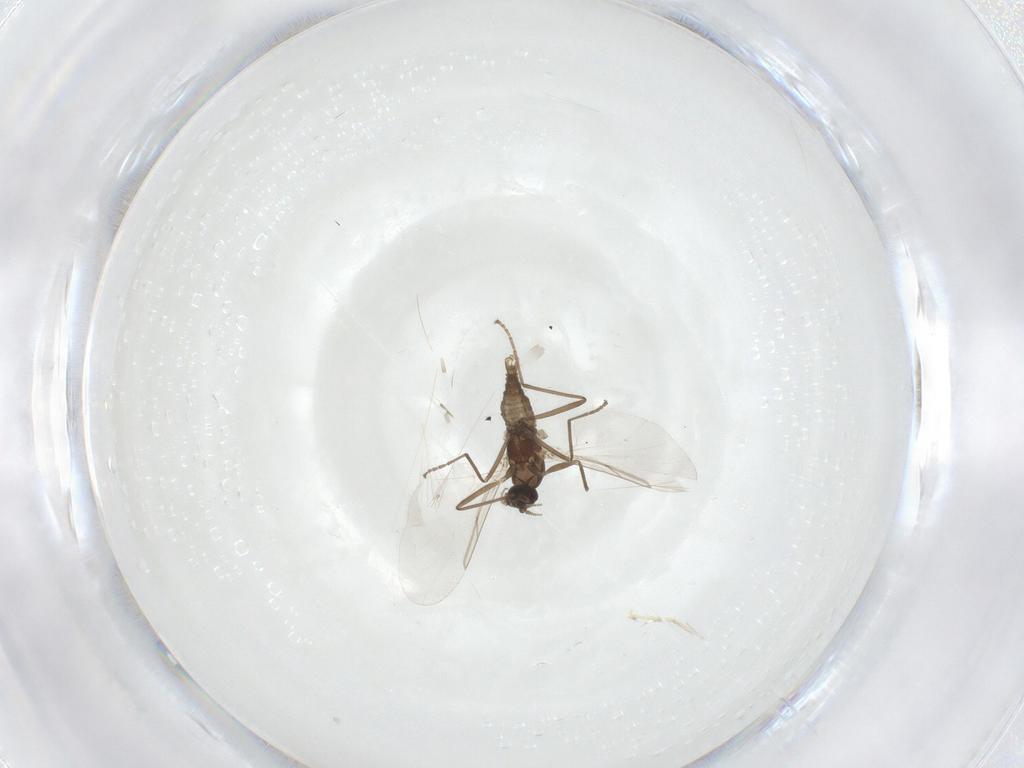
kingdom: Animalia
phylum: Arthropoda
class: Insecta
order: Diptera
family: Cecidomyiidae
